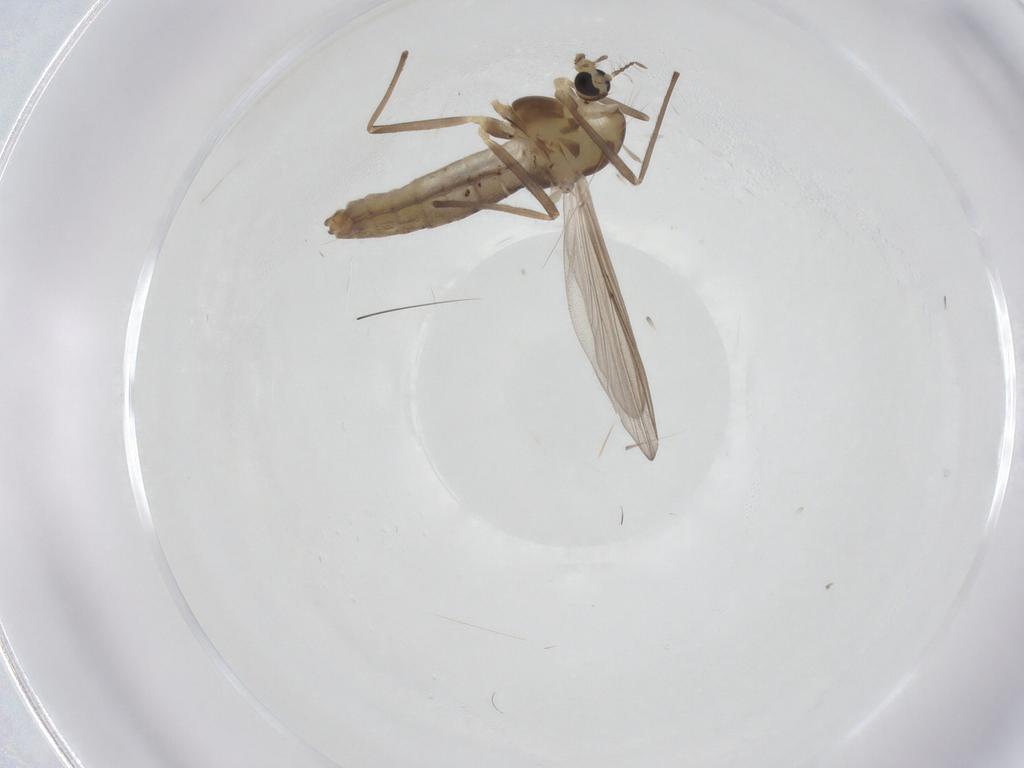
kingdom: Animalia
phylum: Arthropoda
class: Insecta
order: Diptera
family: Chironomidae
